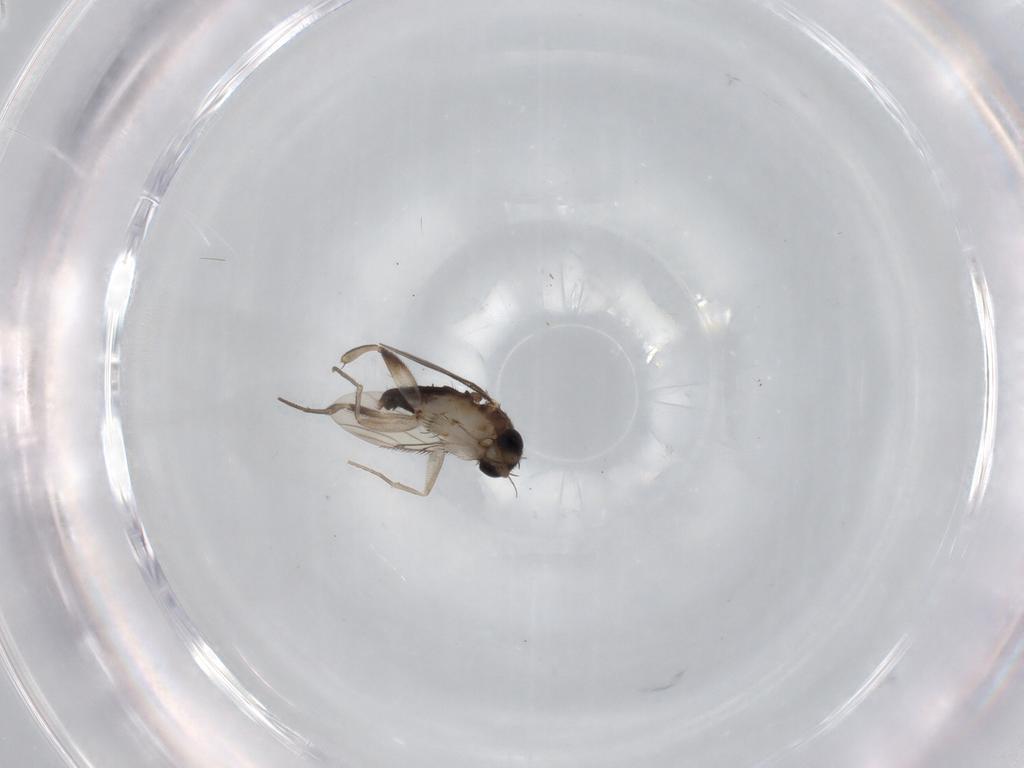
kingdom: Animalia
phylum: Arthropoda
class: Insecta
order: Diptera
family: Phoridae
